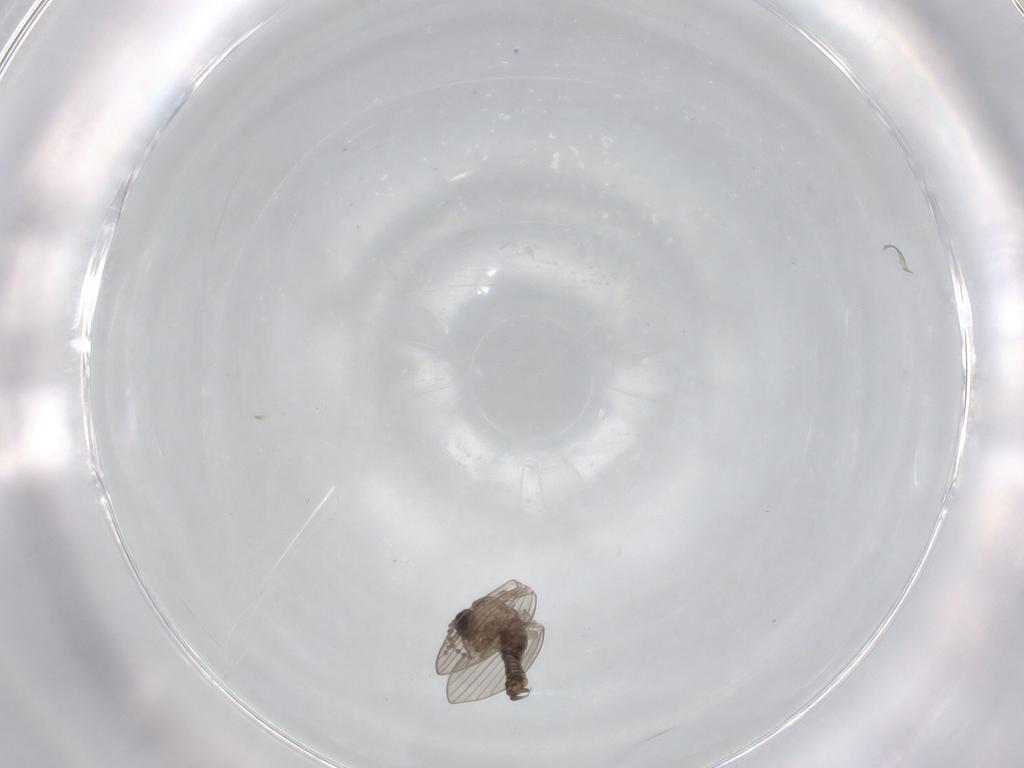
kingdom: Animalia
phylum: Arthropoda
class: Insecta
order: Diptera
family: Psychodidae
